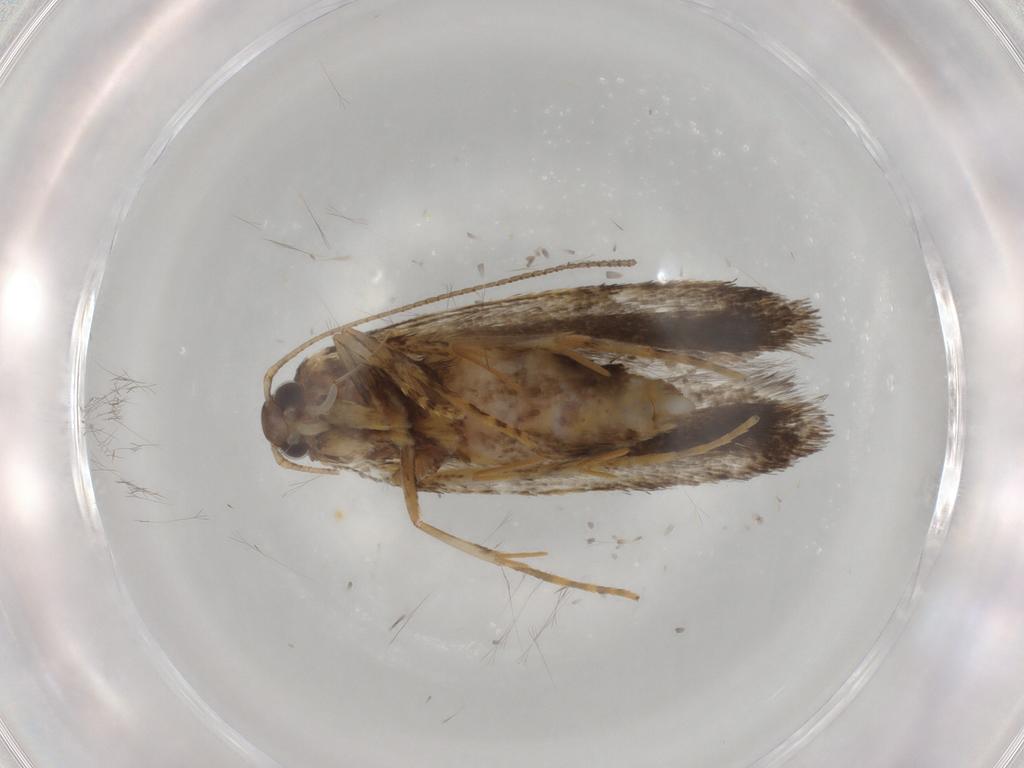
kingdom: Animalia
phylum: Arthropoda
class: Insecta
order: Lepidoptera
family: Autostichidae
